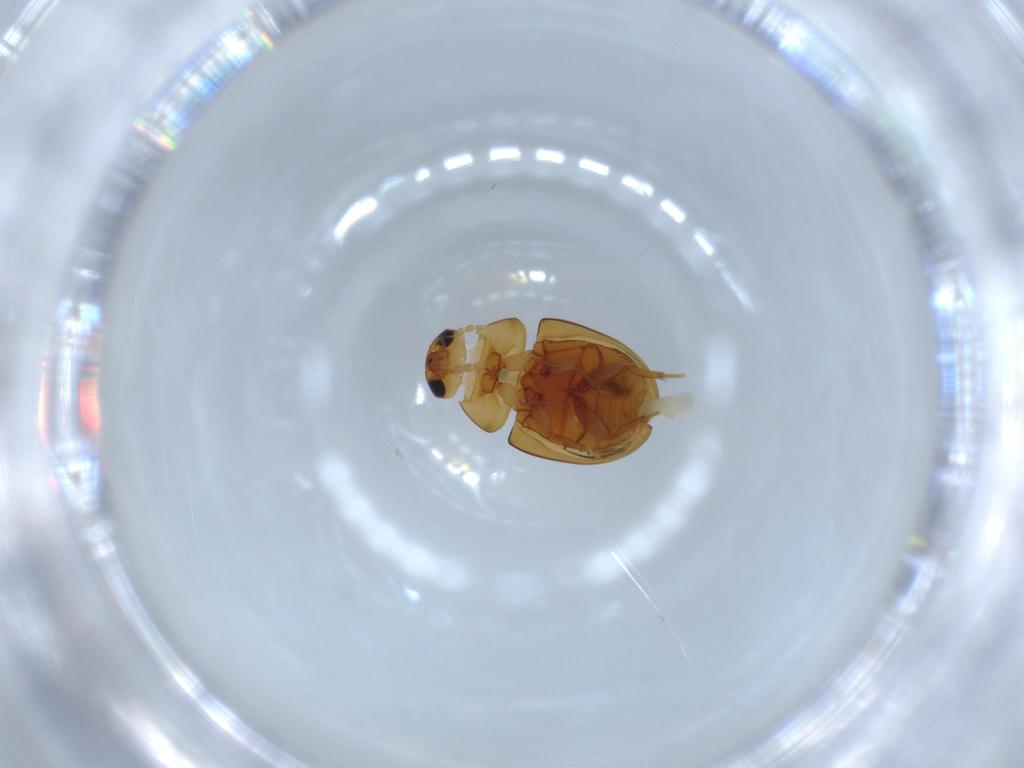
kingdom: Animalia
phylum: Arthropoda
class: Insecta
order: Coleoptera
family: Phalacridae
